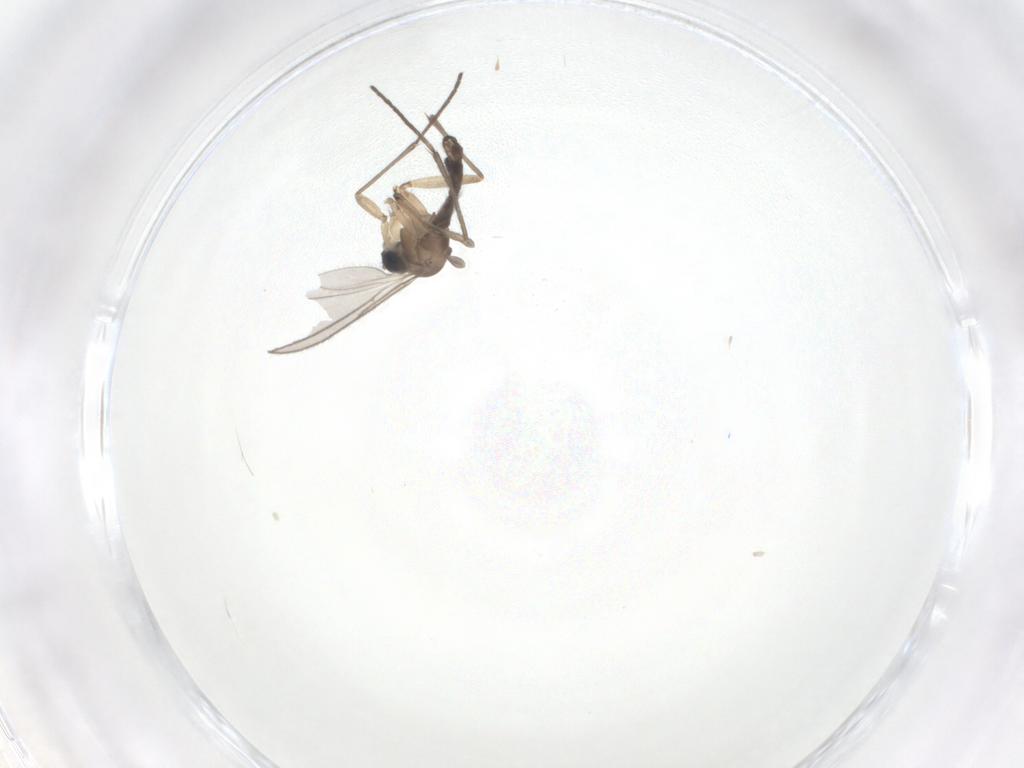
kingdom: Animalia
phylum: Arthropoda
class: Insecta
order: Diptera
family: Sciaridae
